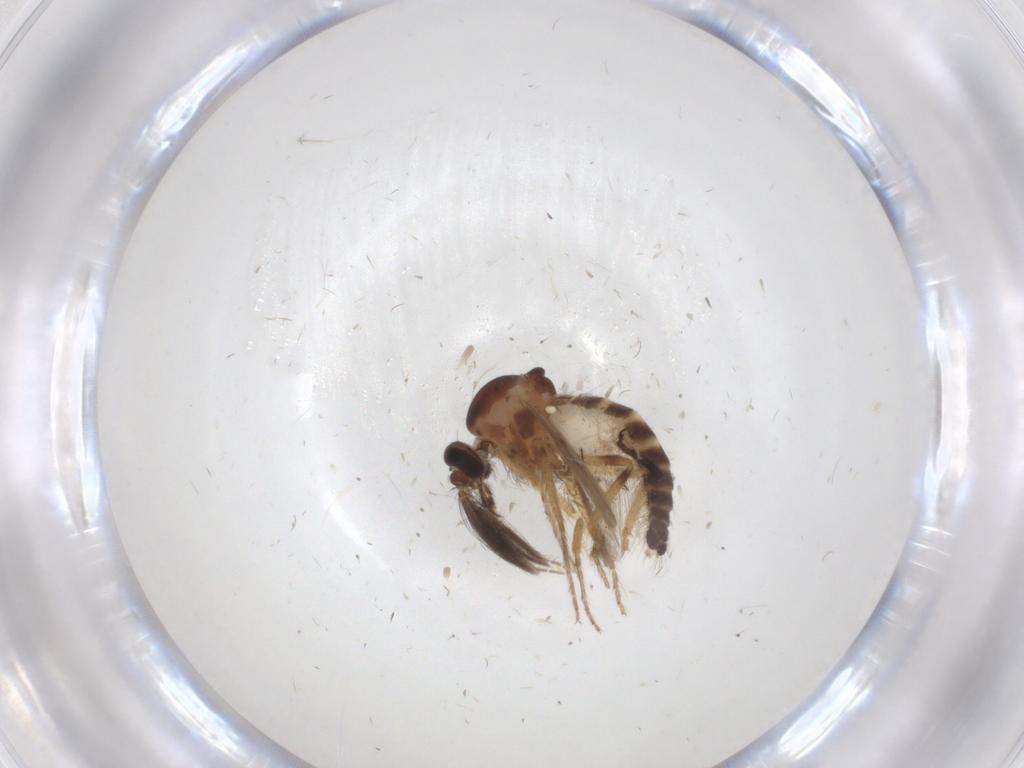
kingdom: Animalia
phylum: Arthropoda
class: Insecta
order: Diptera
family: Ceratopogonidae
